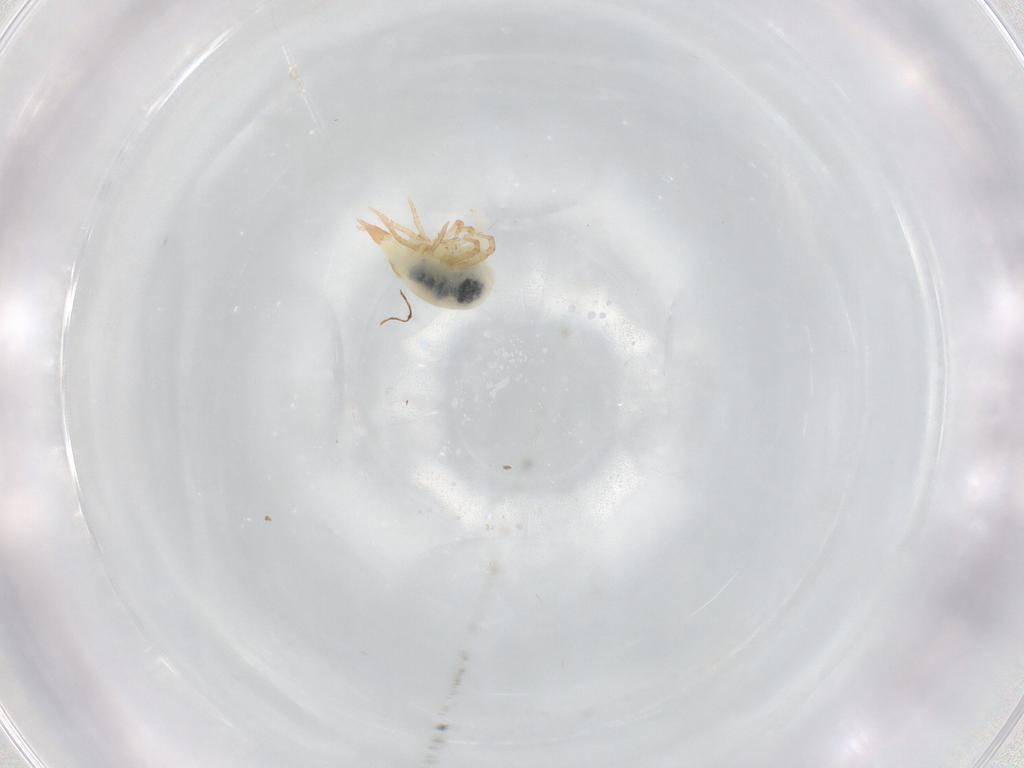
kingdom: Animalia
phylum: Arthropoda
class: Arachnida
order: Trombidiformes
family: Bdellidae
